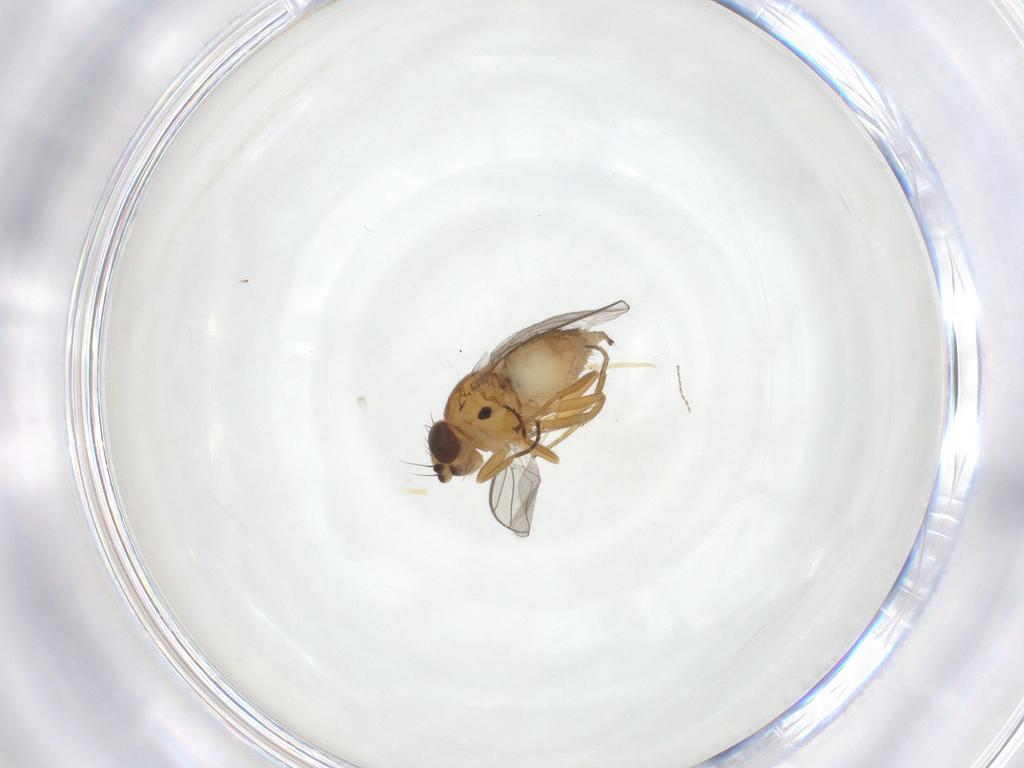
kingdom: Animalia
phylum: Arthropoda
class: Insecta
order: Diptera
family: Chloropidae
